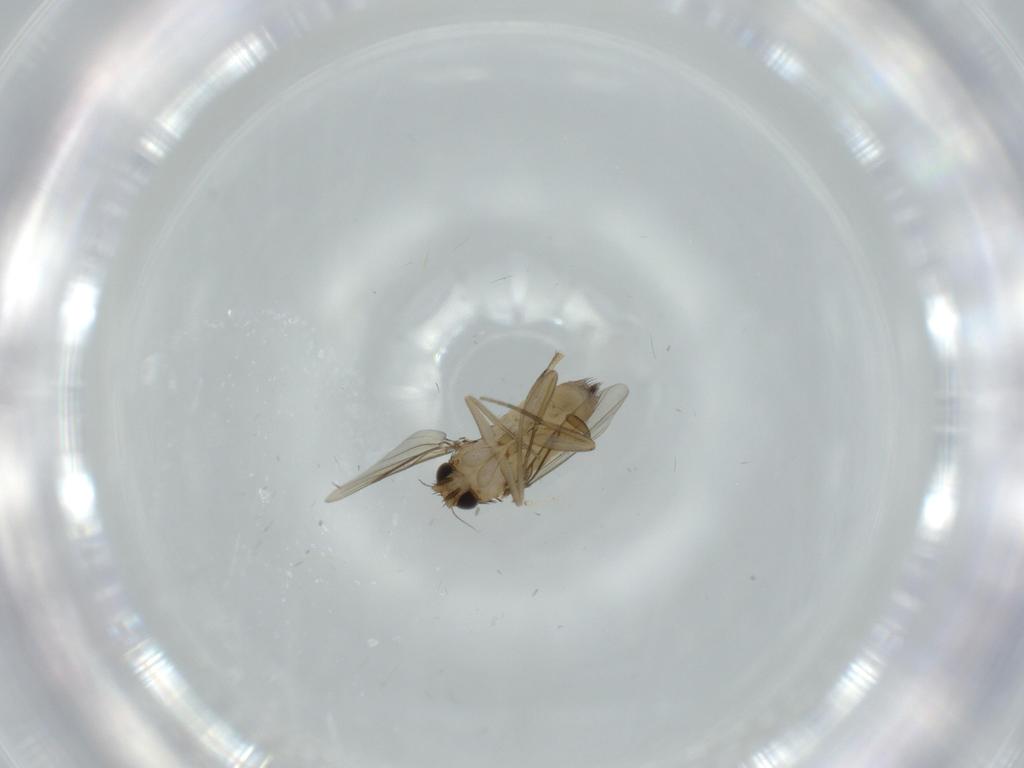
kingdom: Animalia
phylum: Arthropoda
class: Insecta
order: Diptera
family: Phoridae
